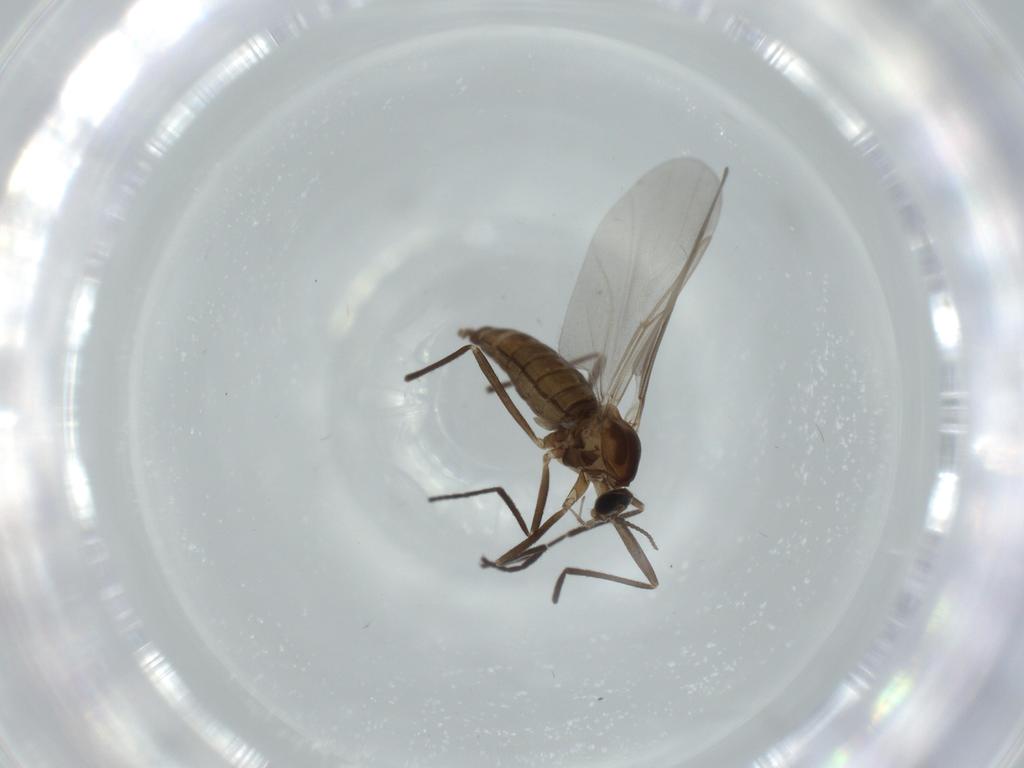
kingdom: Animalia
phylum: Arthropoda
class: Insecta
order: Diptera
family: Cecidomyiidae
